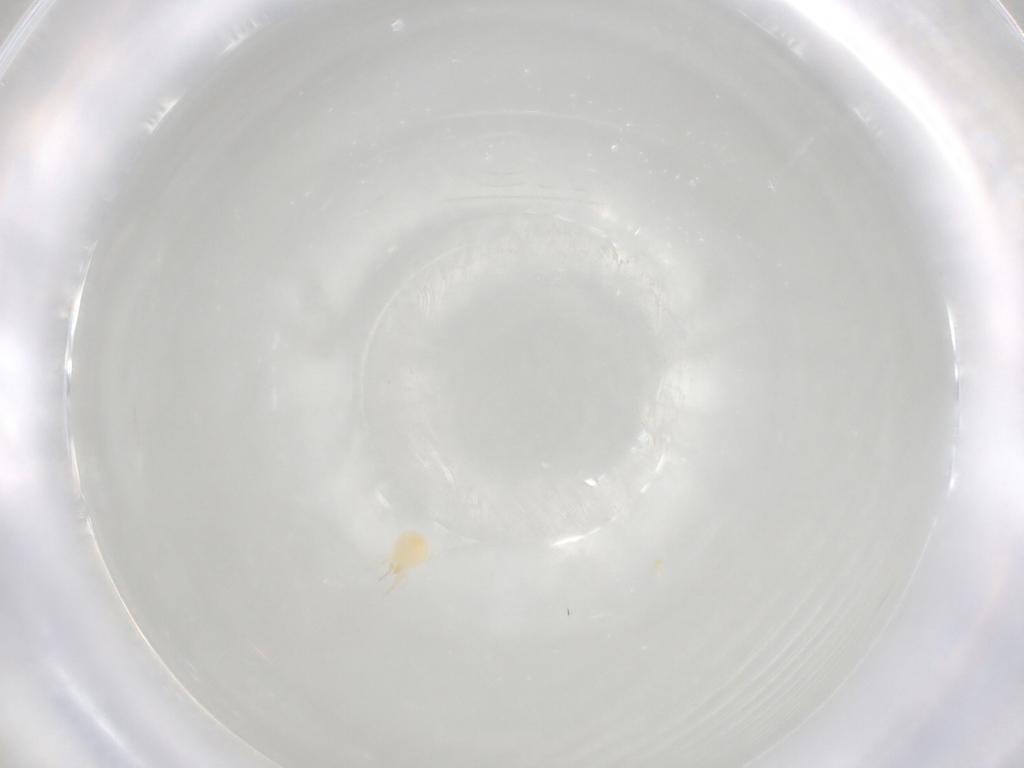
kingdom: Animalia
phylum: Arthropoda
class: Arachnida
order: Mesostigmata
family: Phytoseiidae
